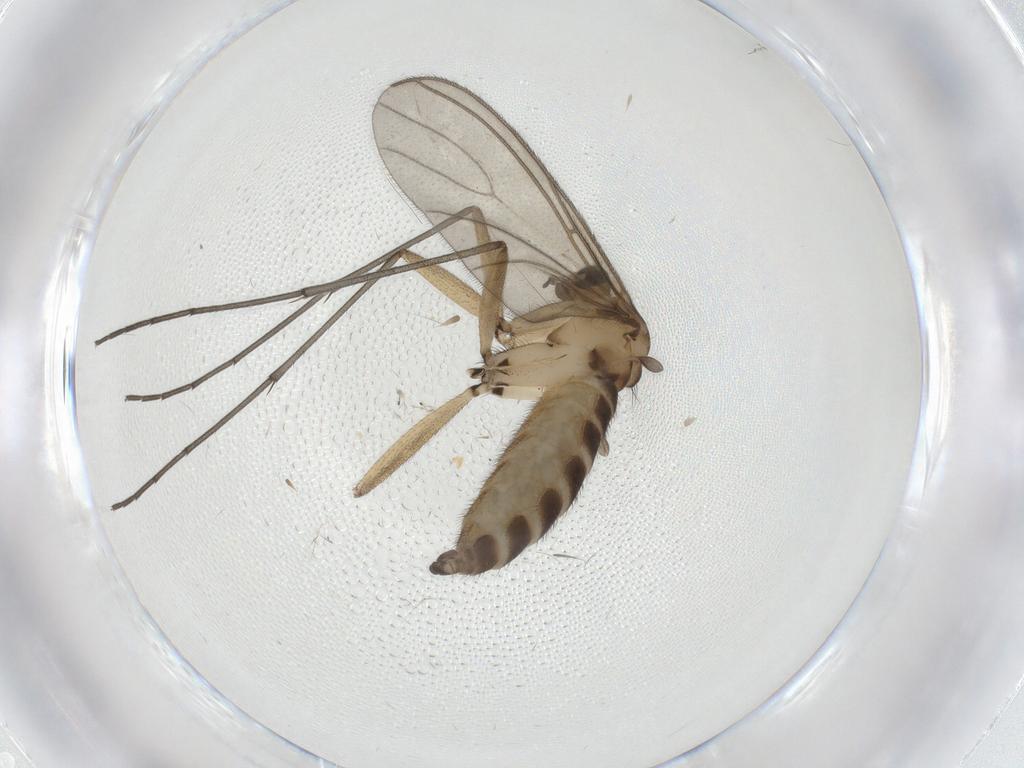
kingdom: Animalia
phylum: Arthropoda
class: Insecta
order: Diptera
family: Sciaridae
